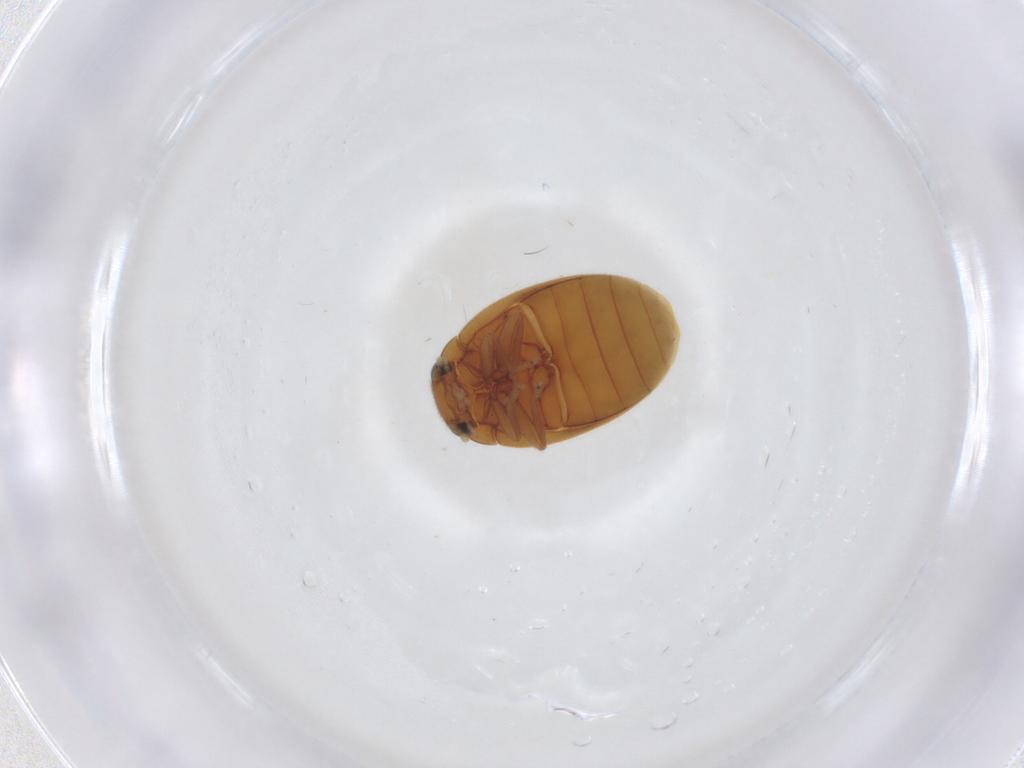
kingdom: Animalia
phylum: Arthropoda
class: Insecta
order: Coleoptera
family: Scirtidae
